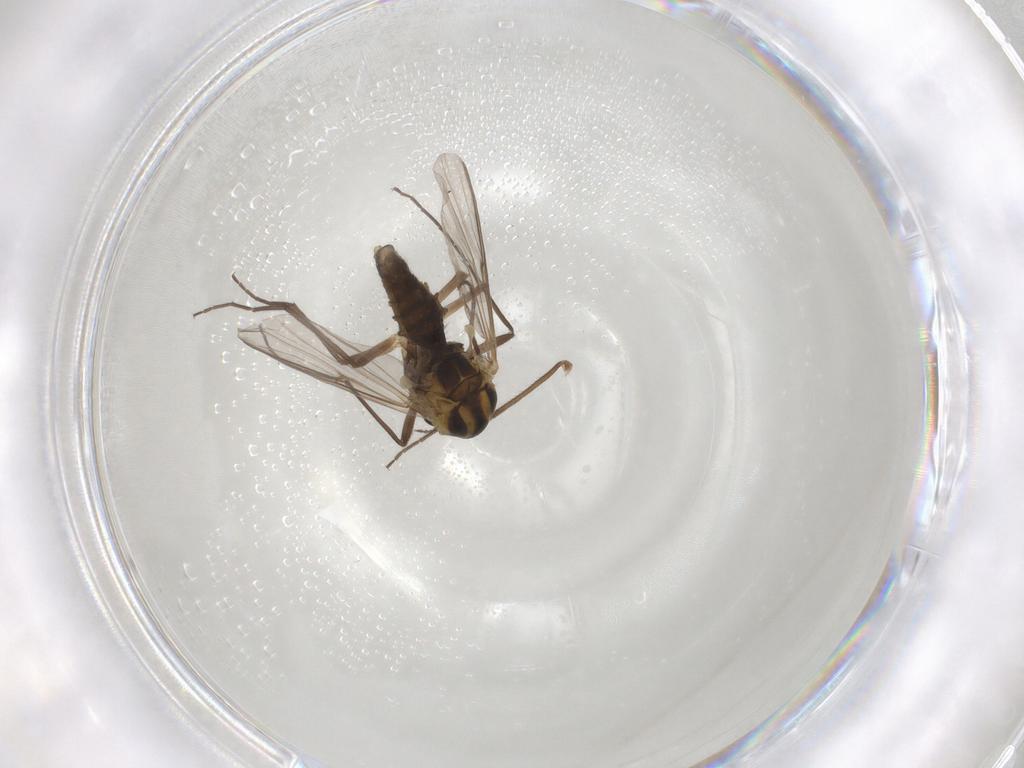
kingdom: Animalia
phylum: Arthropoda
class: Insecta
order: Diptera
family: Chironomidae
